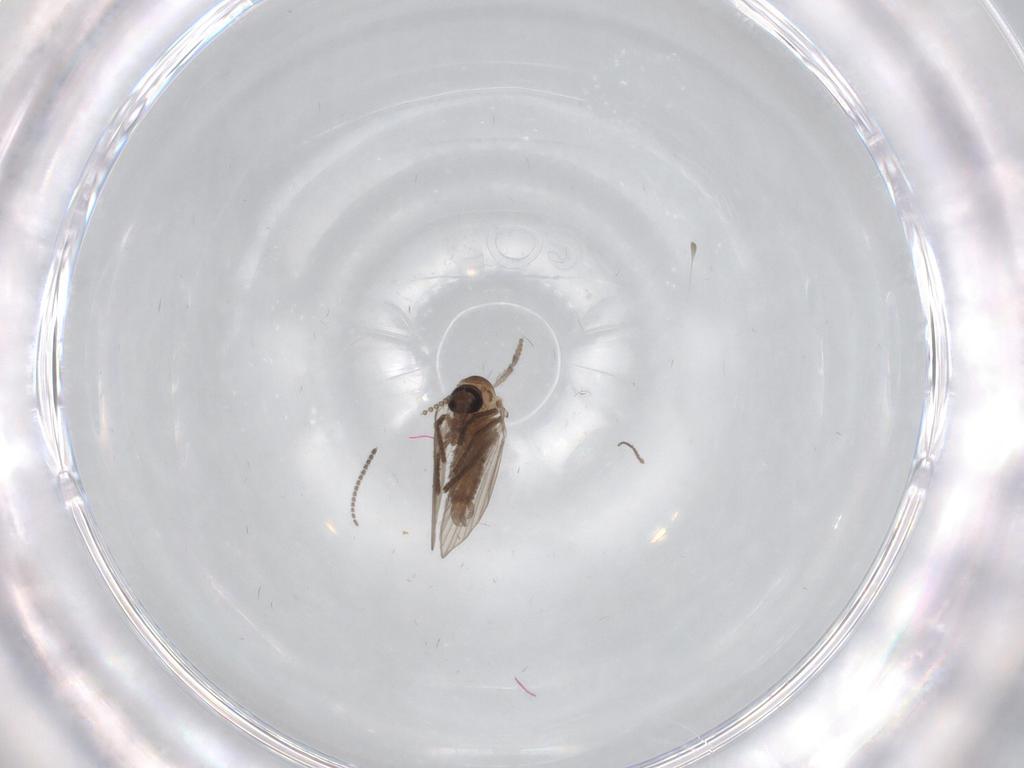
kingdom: Animalia
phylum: Arthropoda
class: Insecta
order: Diptera
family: Psychodidae
